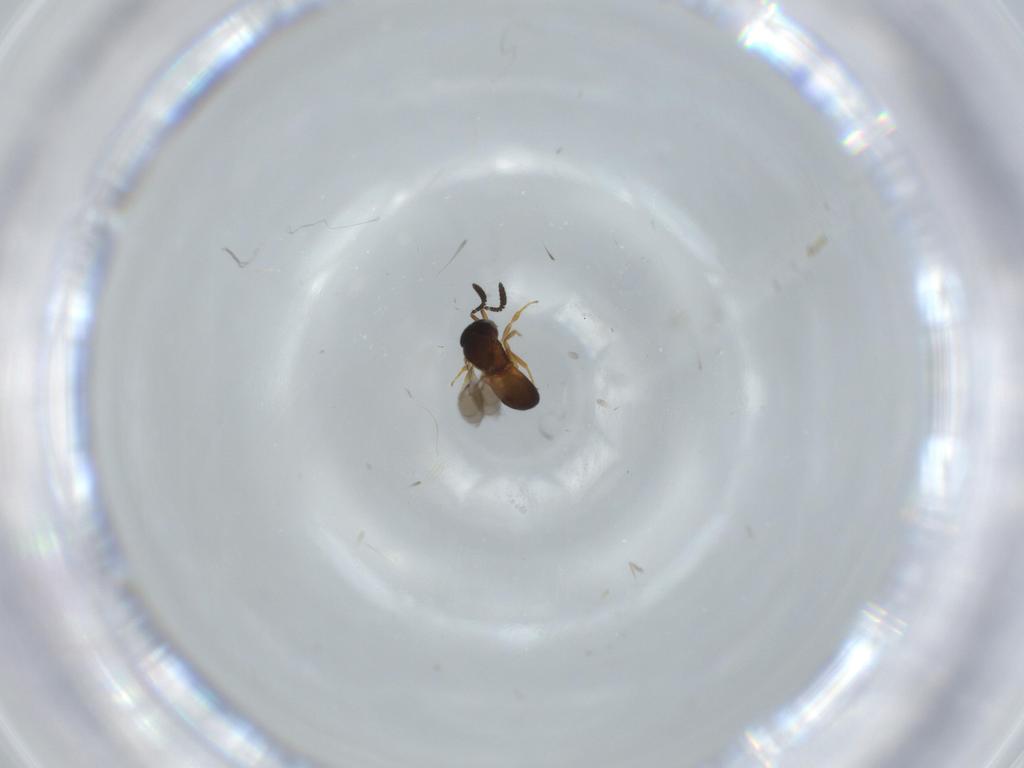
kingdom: Animalia
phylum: Arthropoda
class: Insecta
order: Hymenoptera
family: Scelionidae
